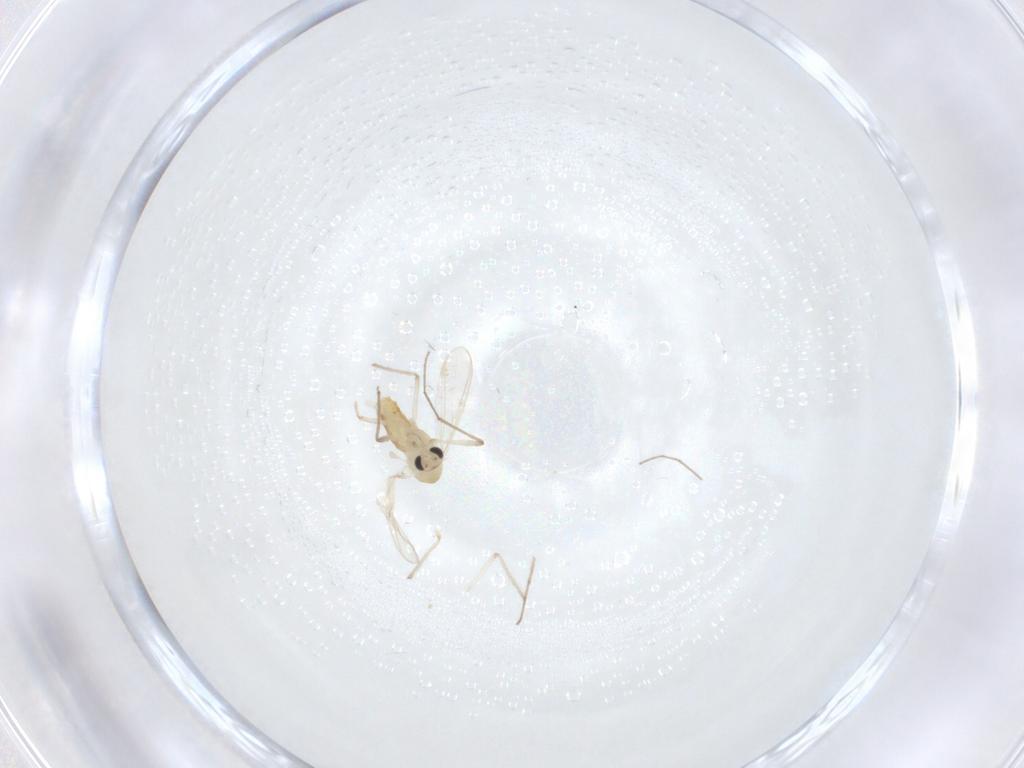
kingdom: Animalia
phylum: Arthropoda
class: Insecta
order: Diptera
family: Chironomidae
